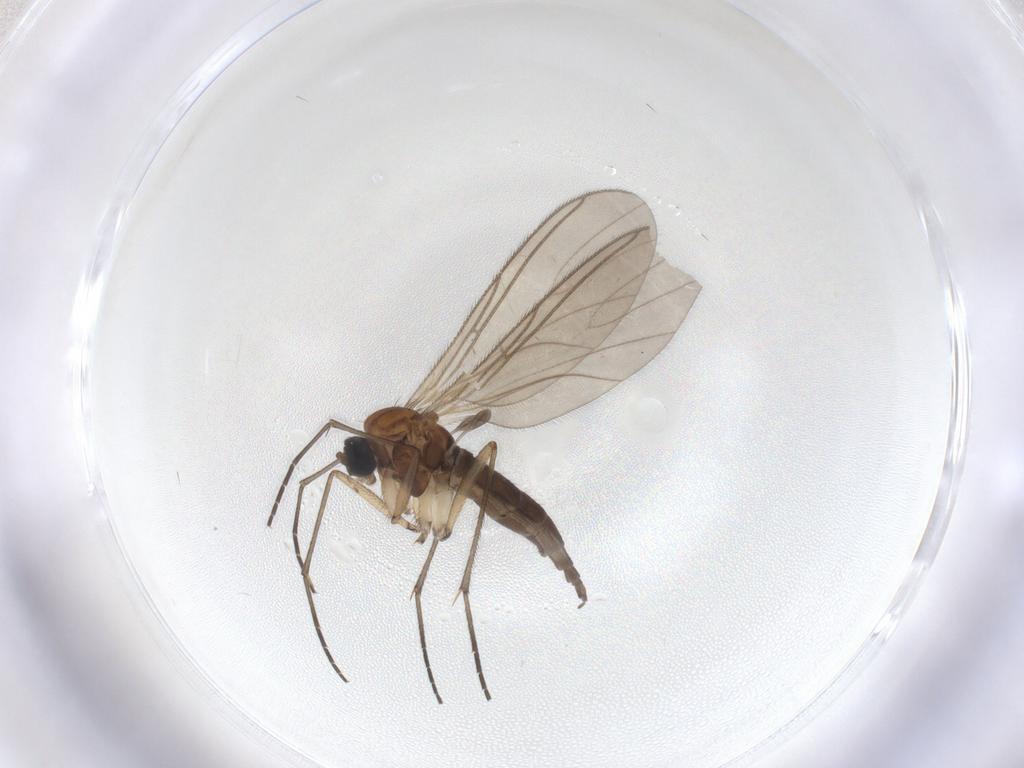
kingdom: Animalia
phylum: Arthropoda
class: Insecta
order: Diptera
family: Sciaridae
